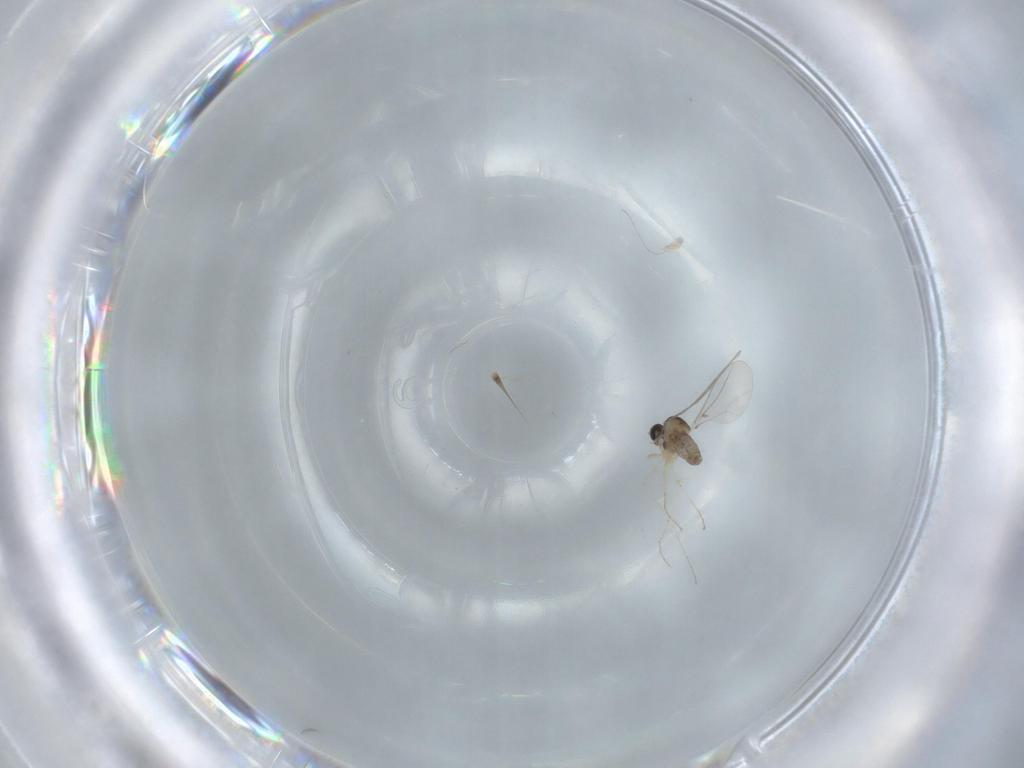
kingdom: Animalia
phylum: Arthropoda
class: Insecta
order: Diptera
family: Cecidomyiidae
